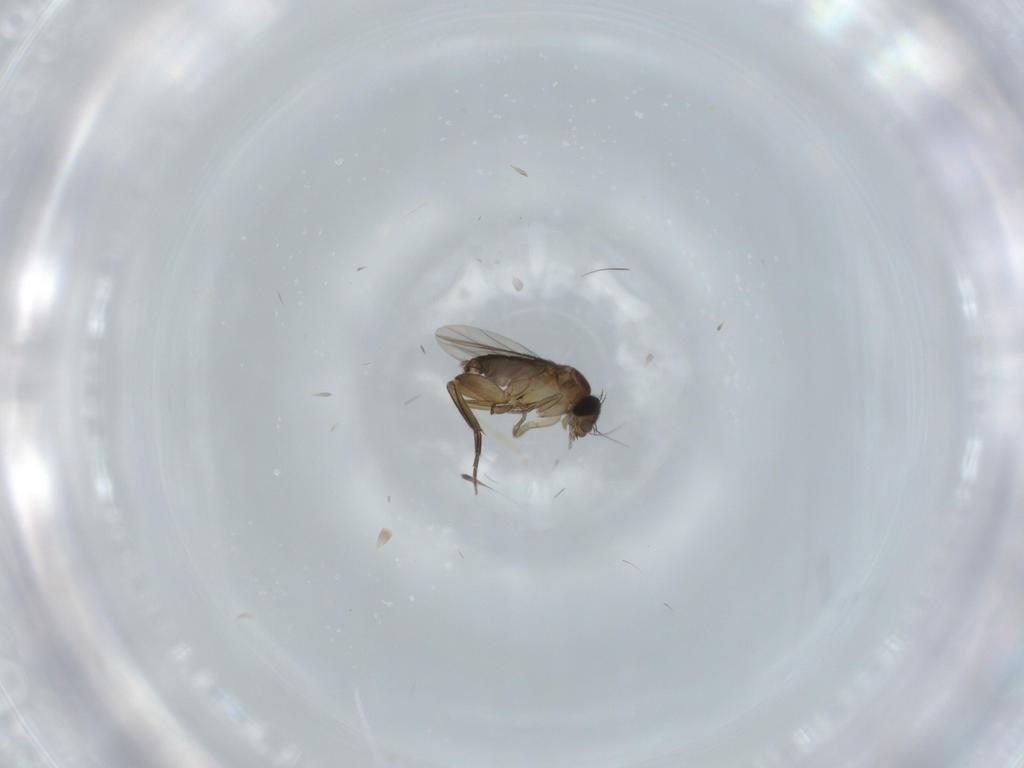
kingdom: Animalia
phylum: Arthropoda
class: Insecta
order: Diptera
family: Phoridae
